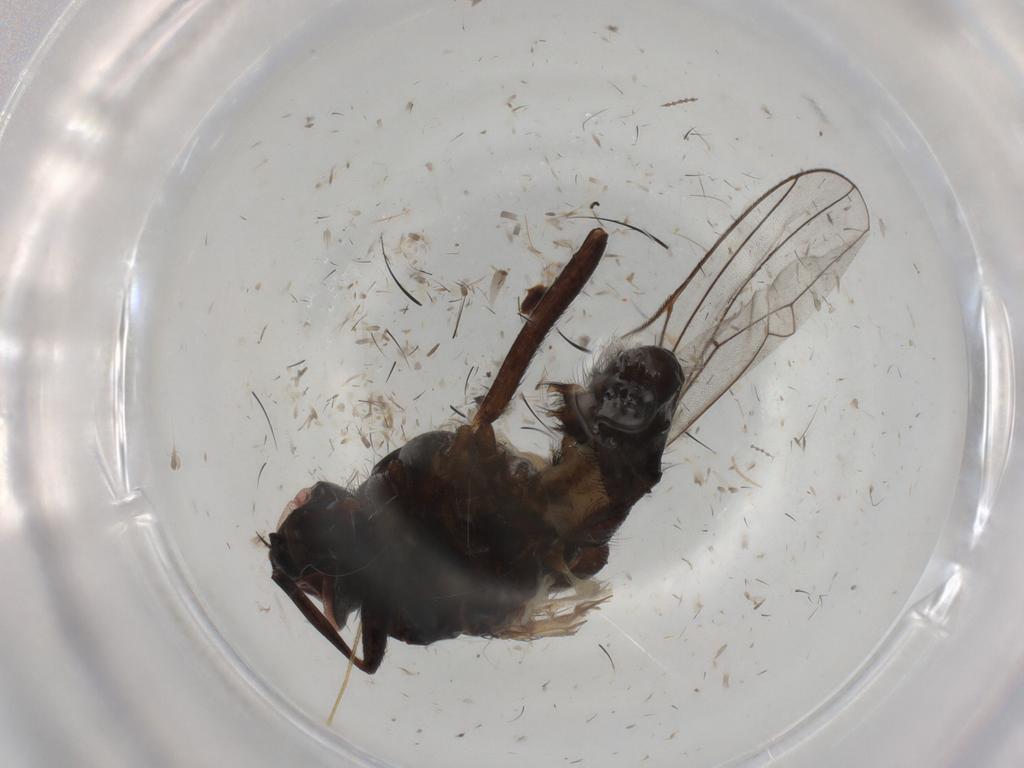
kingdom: Animalia
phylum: Arthropoda
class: Insecta
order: Diptera
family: Anthomyiidae
